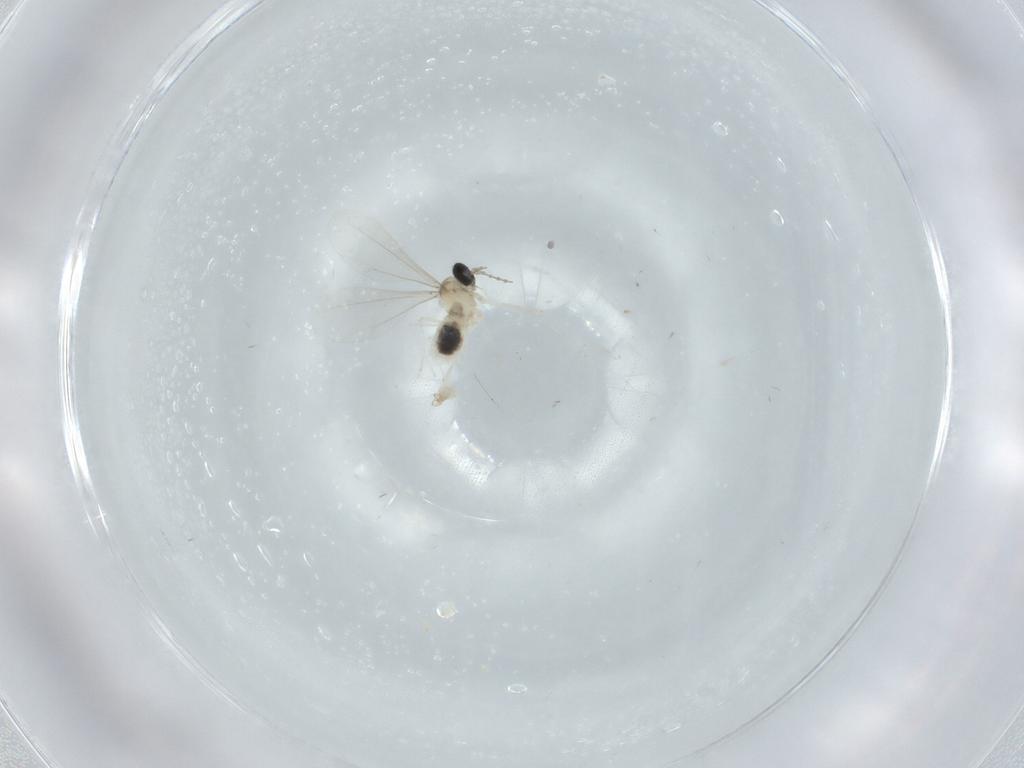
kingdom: Animalia
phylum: Arthropoda
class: Insecta
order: Diptera
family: Cecidomyiidae
